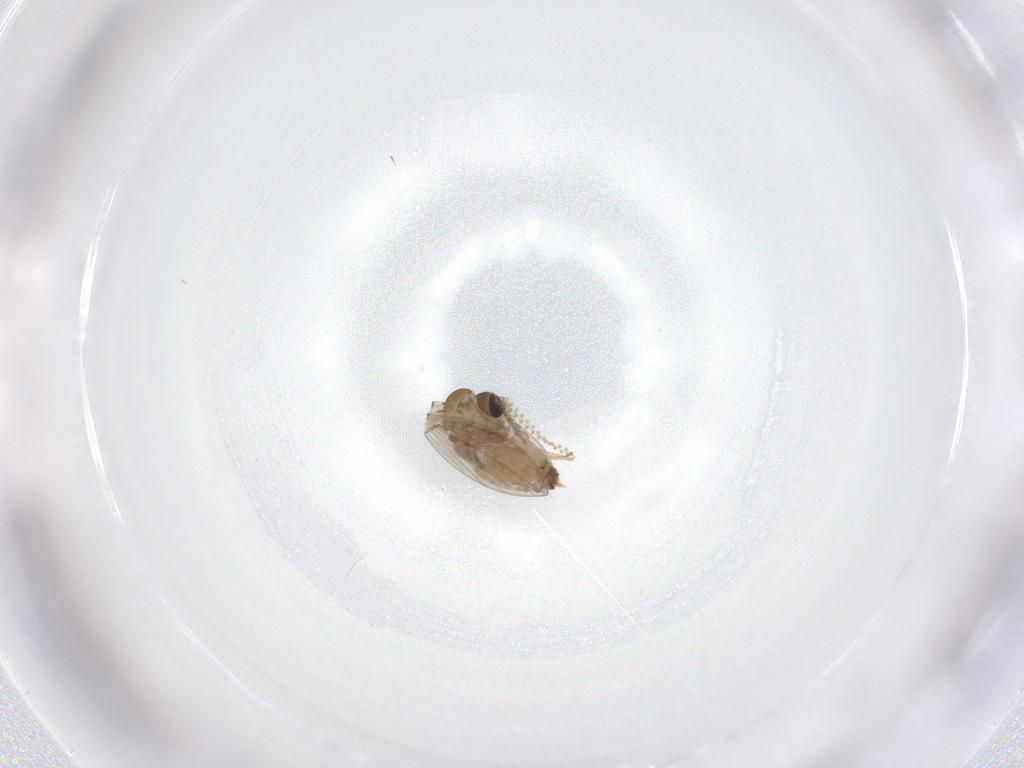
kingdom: Animalia
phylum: Arthropoda
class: Insecta
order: Diptera
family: Psychodidae
